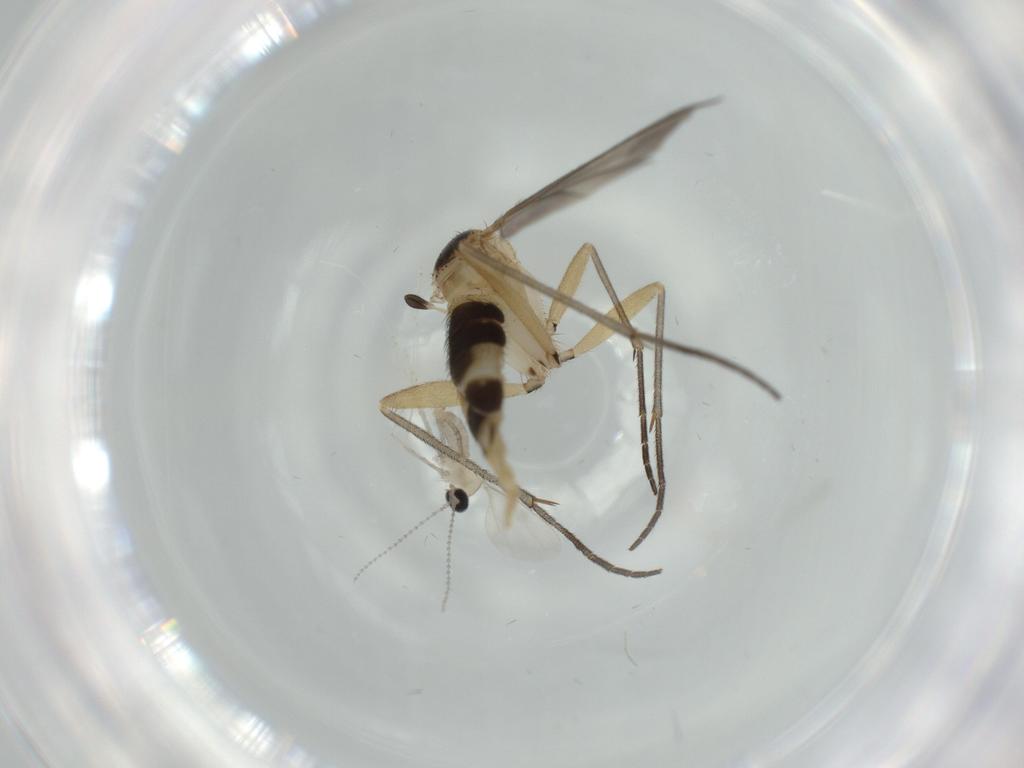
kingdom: Animalia
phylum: Arthropoda
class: Insecta
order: Diptera
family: Sciaridae
